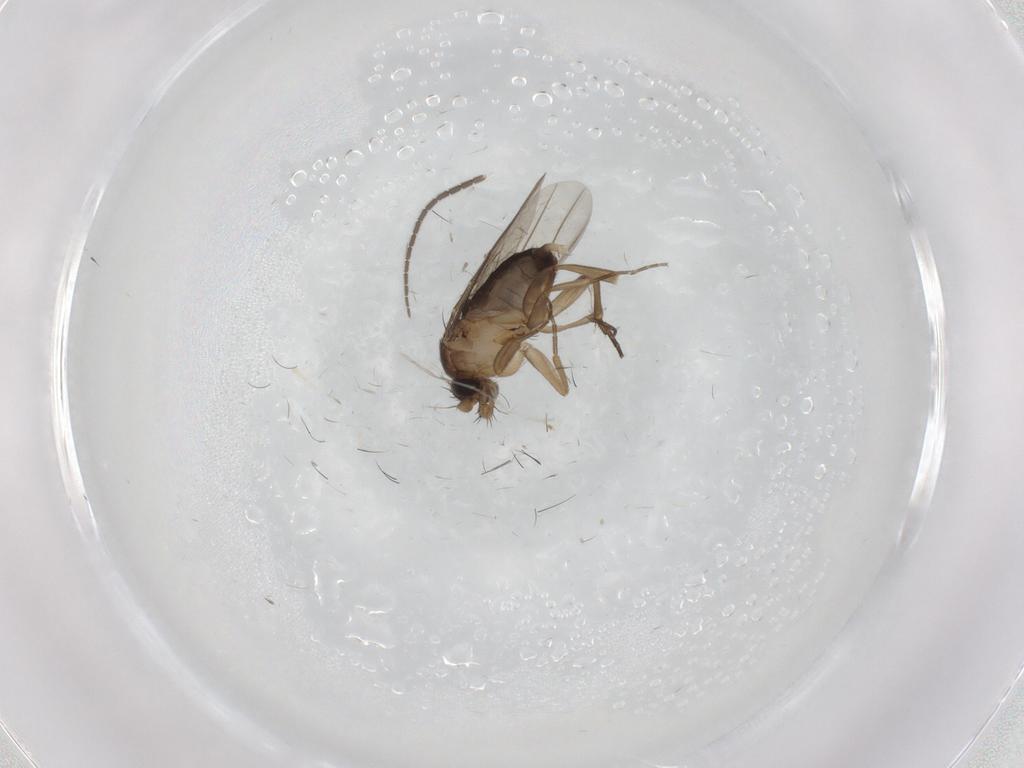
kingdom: Animalia
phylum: Arthropoda
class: Insecta
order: Diptera
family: Phoridae
